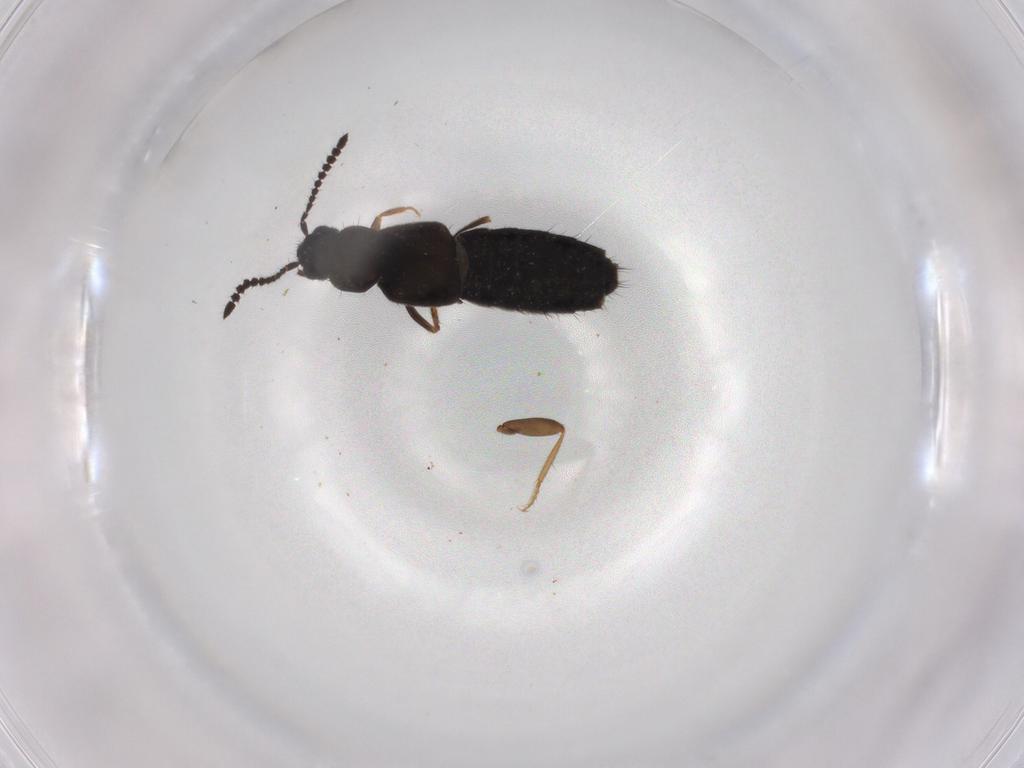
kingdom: Animalia
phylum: Arthropoda
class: Insecta
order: Coleoptera
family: Staphylinidae
